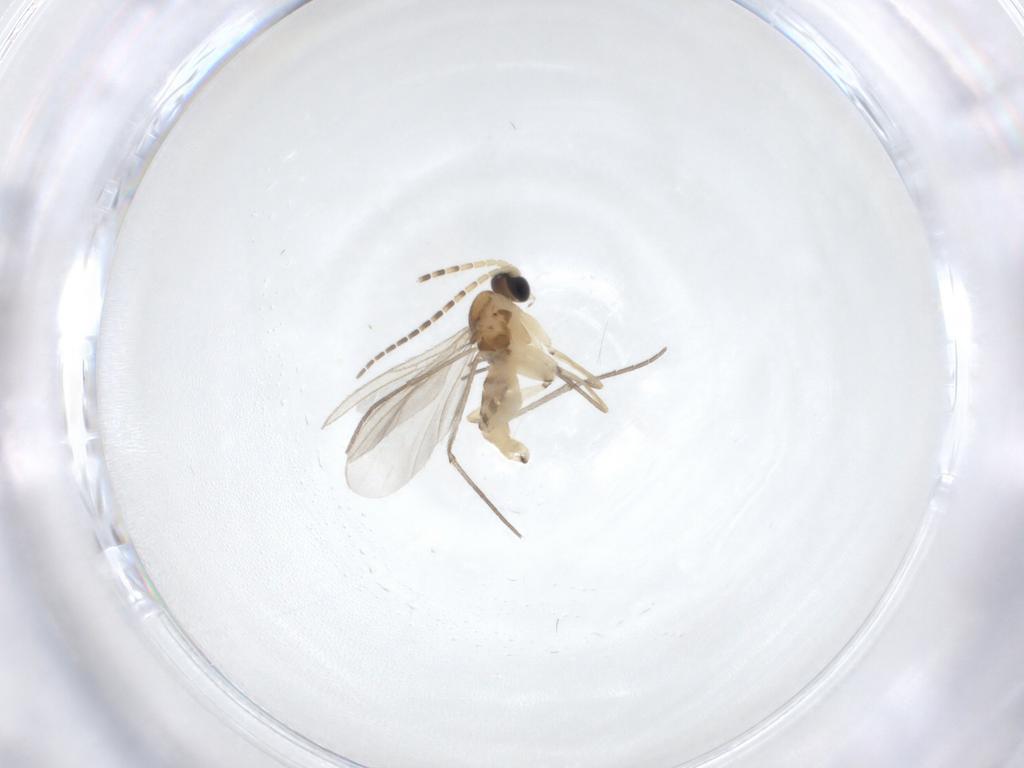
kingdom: Animalia
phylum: Arthropoda
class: Insecta
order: Diptera
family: Sciaridae
